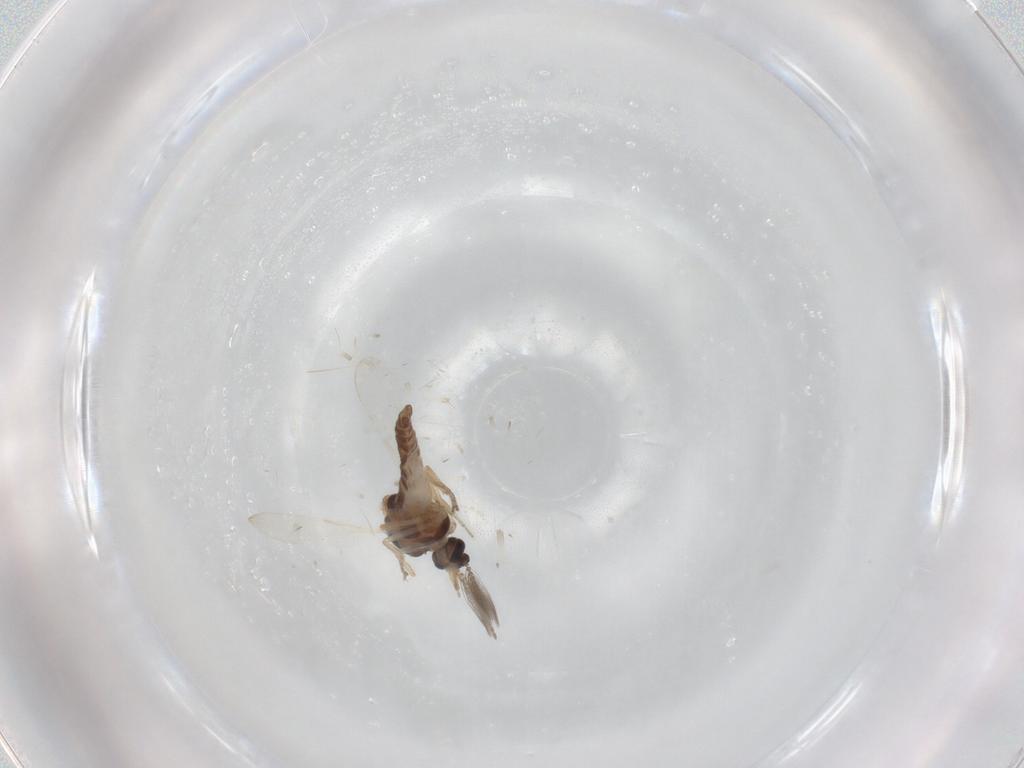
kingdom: Animalia
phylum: Arthropoda
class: Insecta
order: Diptera
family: Ceratopogonidae
